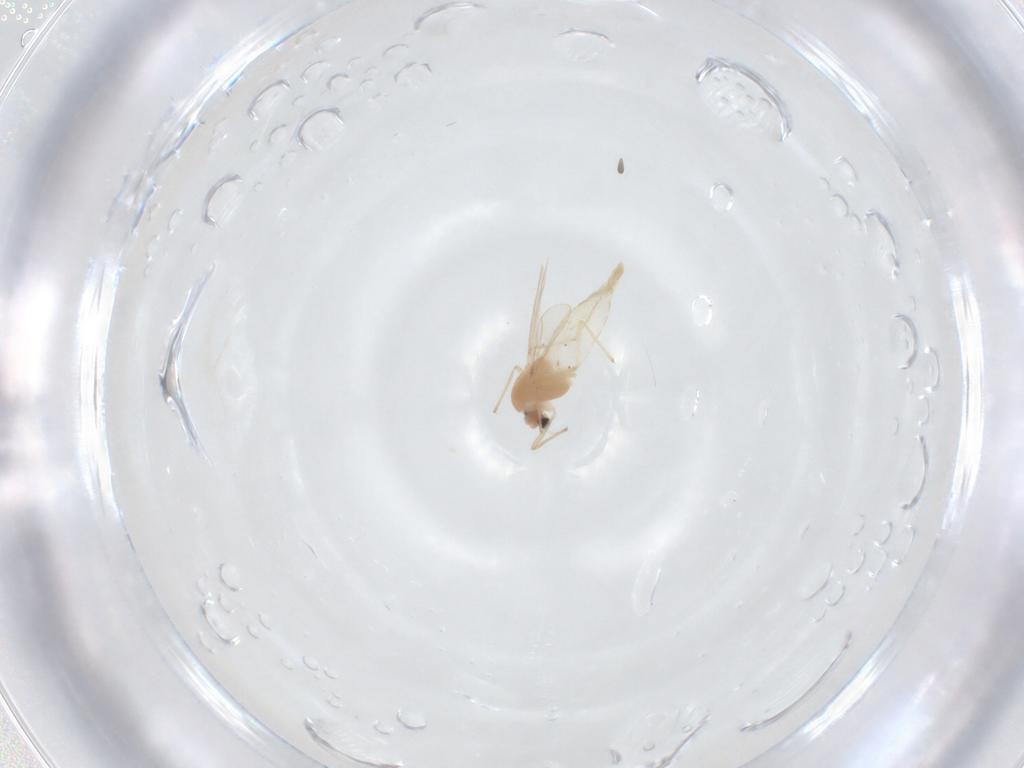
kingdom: Animalia
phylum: Arthropoda
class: Insecta
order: Diptera
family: Chironomidae
